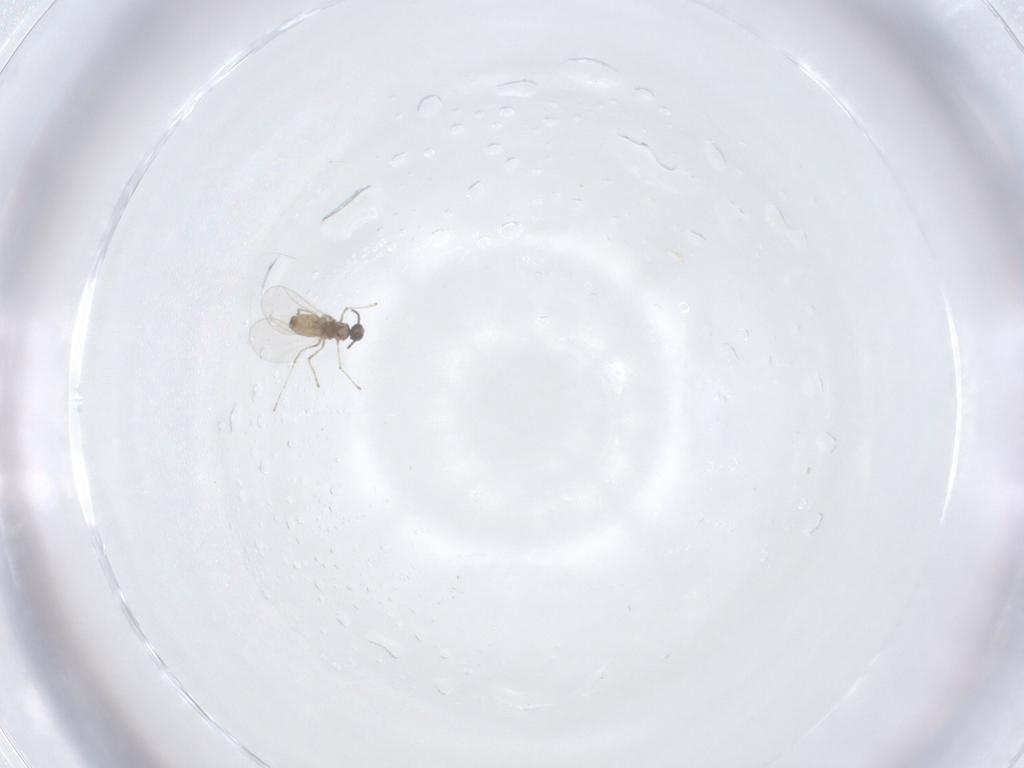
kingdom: Animalia
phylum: Arthropoda
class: Insecta
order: Diptera
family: Cecidomyiidae
